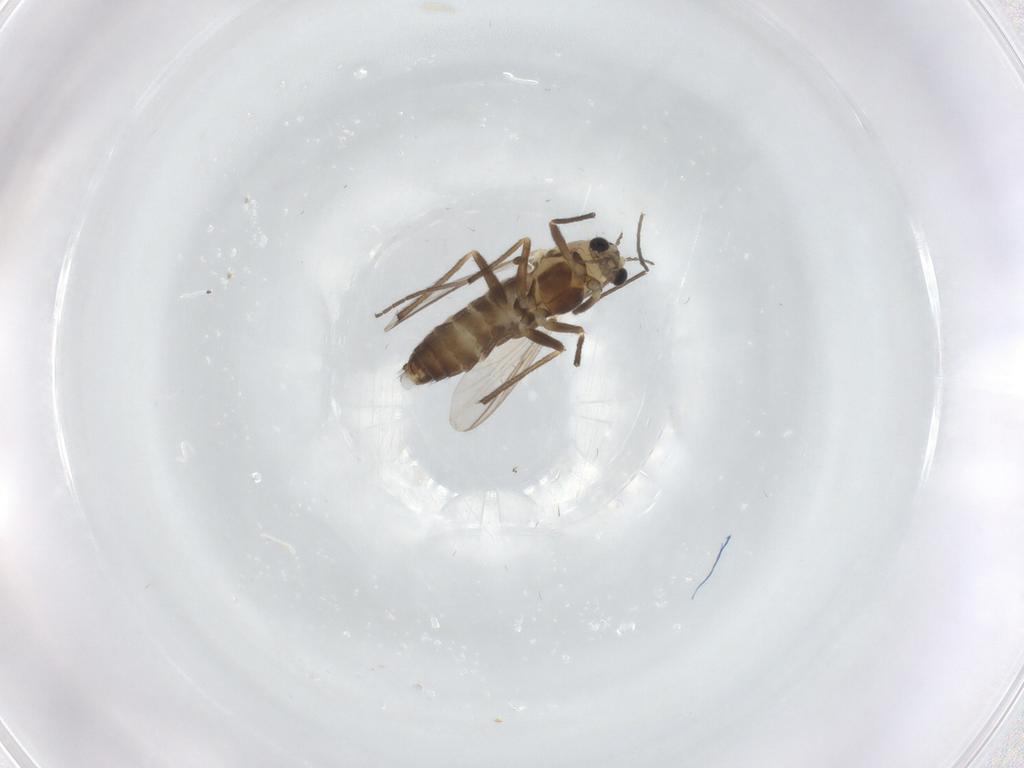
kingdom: Animalia
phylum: Arthropoda
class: Insecta
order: Diptera
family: Chironomidae
